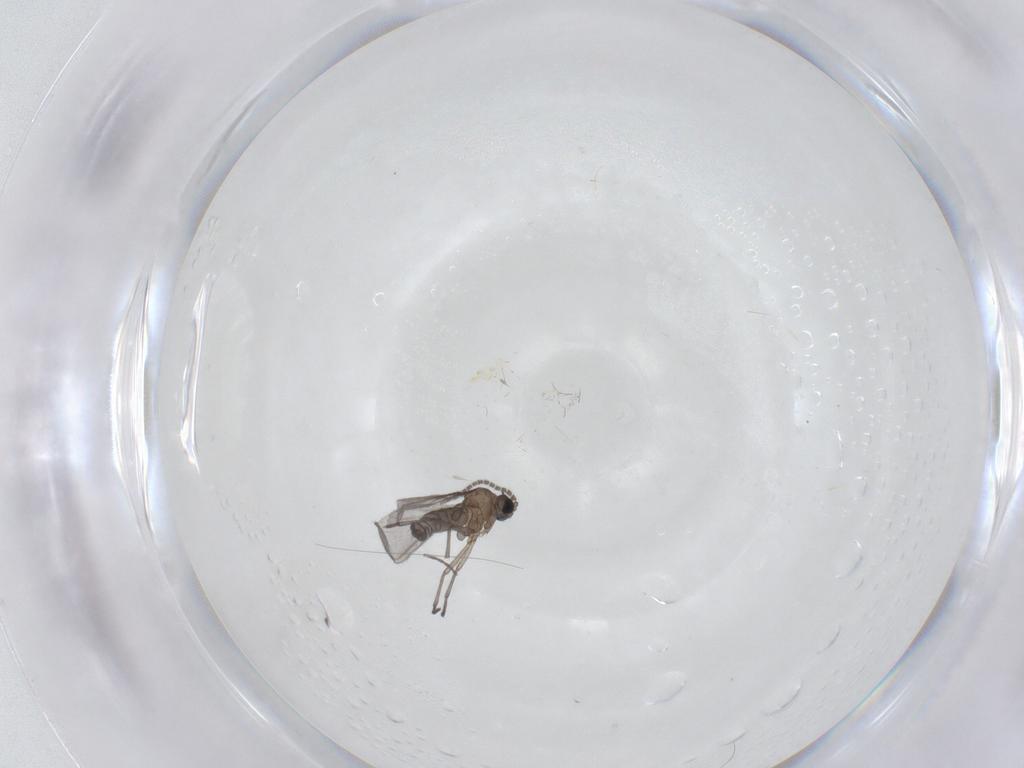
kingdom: Animalia
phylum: Arthropoda
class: Insecta
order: Diptera
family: Sciaridae
